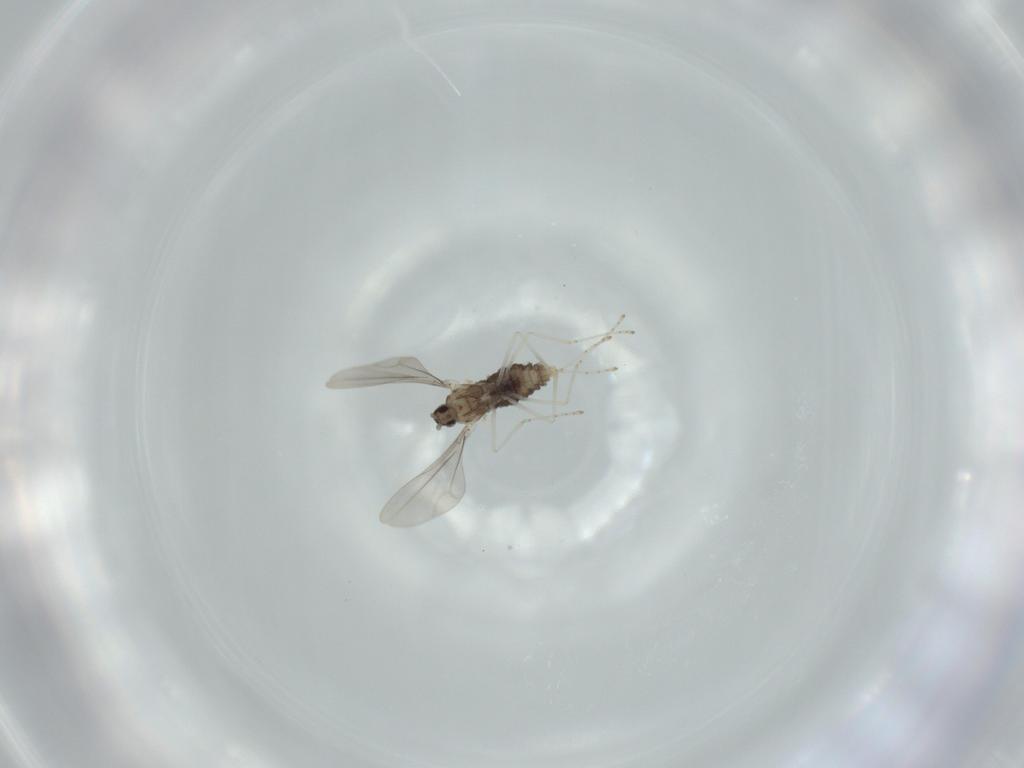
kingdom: Animalia
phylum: Arthropoda
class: Insecta
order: Diptera
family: Cecidomyiidae
